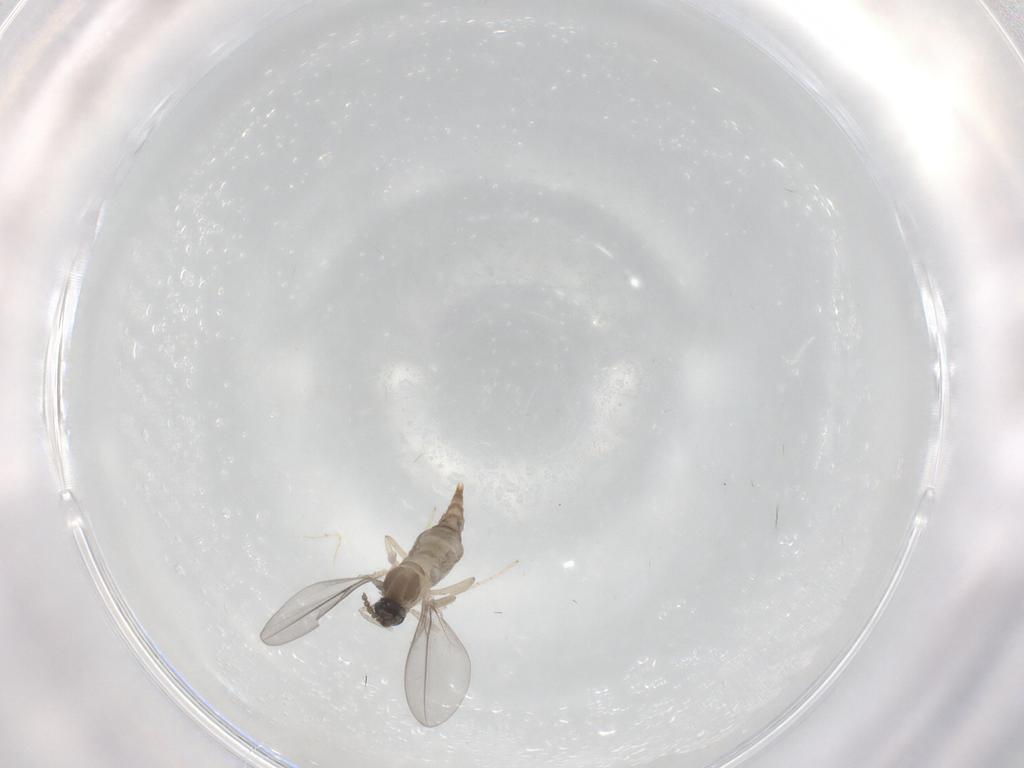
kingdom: Animalia
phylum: Arthropoda
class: Insecta
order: Diptera
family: Cecidomyiidae
